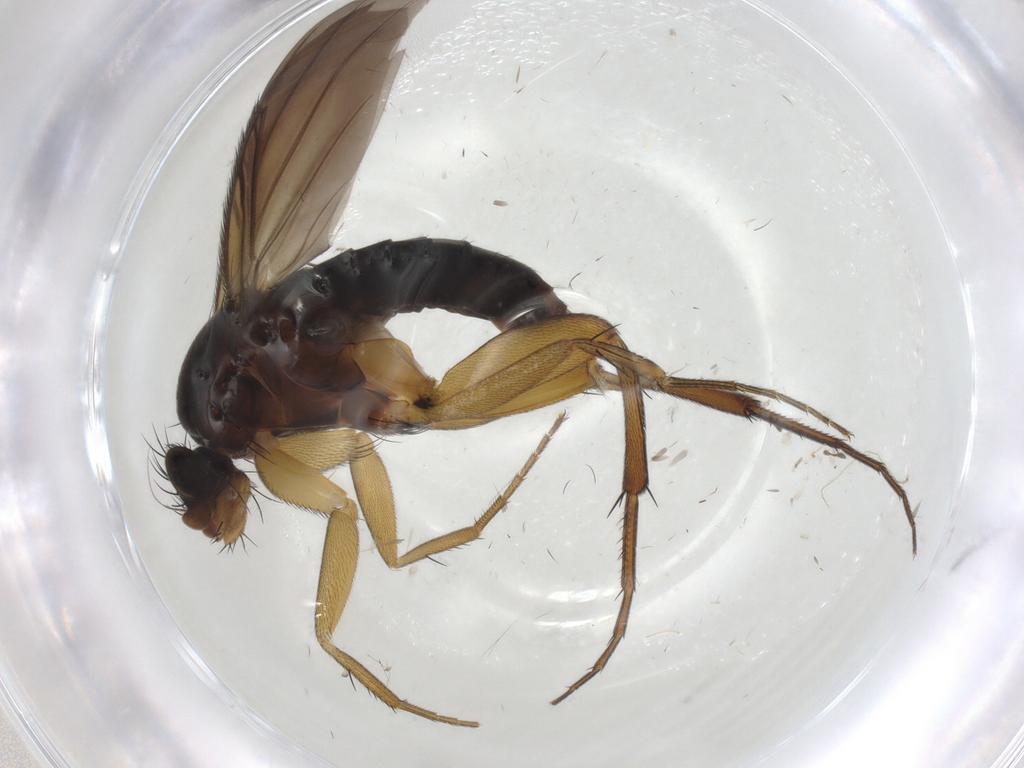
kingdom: Animalia
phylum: Arthropoda
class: Insecta
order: Diptera
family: Phoridae
